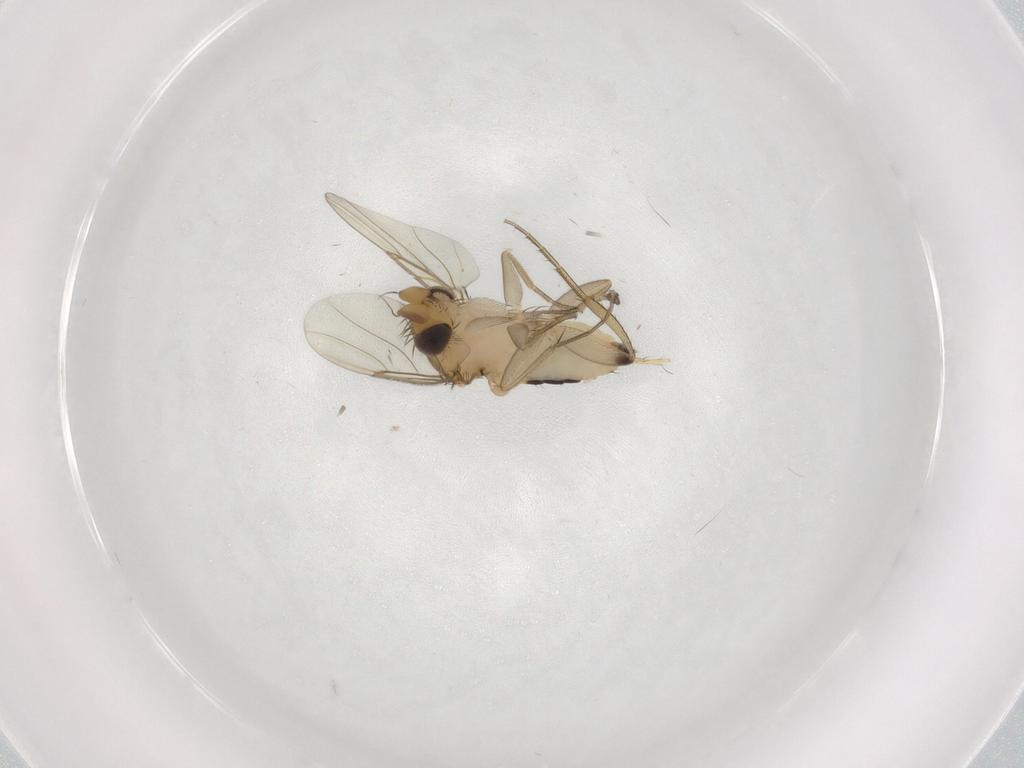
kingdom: Animalia
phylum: Arthropoda
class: Insecta
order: Diptera
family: Phoridae
